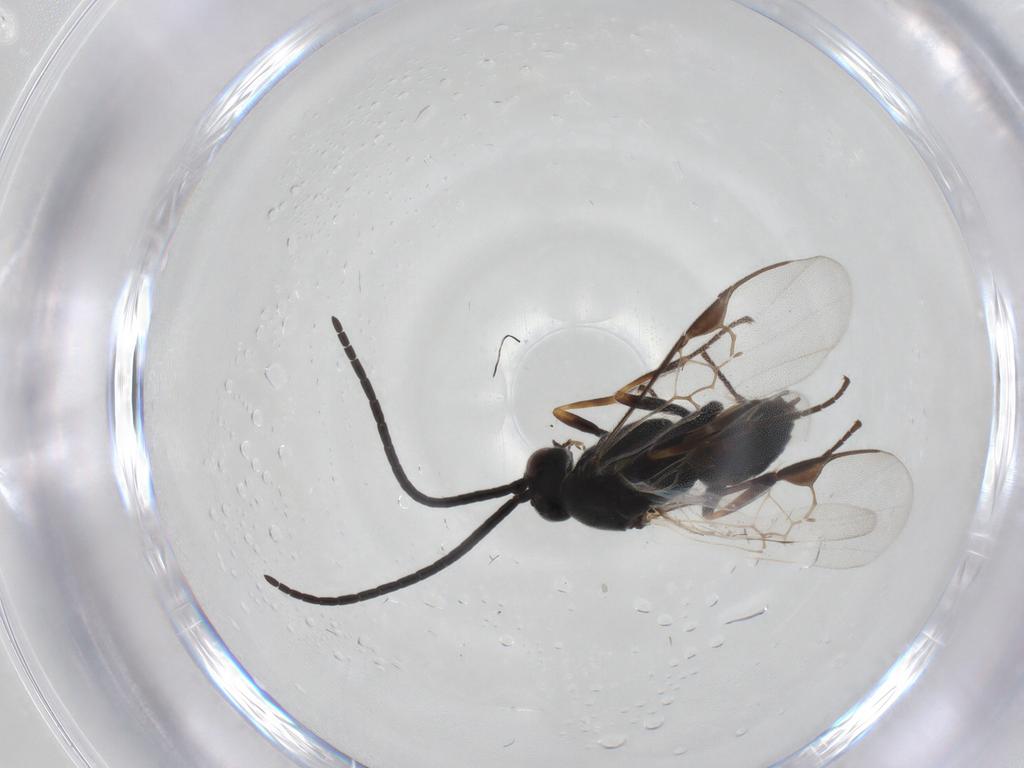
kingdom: Animalia
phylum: Arthropoda
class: Insecta
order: Hymenoptera
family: Braconidae
